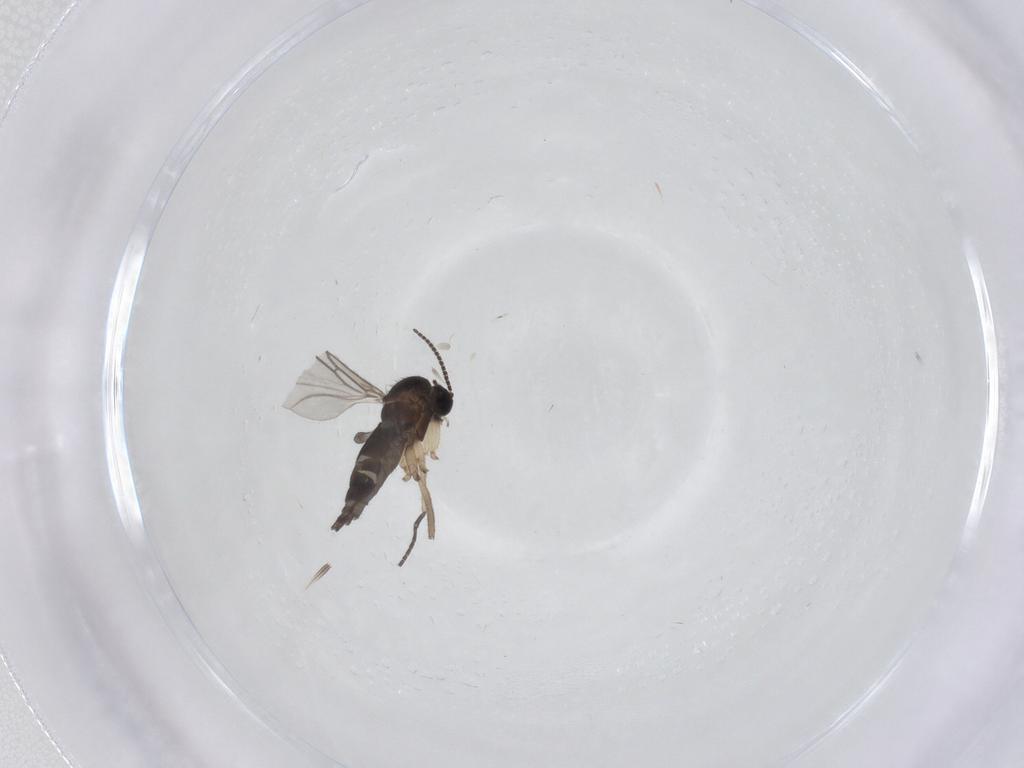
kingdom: Animalia
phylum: Arthropoda
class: Insecta
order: Diptera
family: Sciaridae
